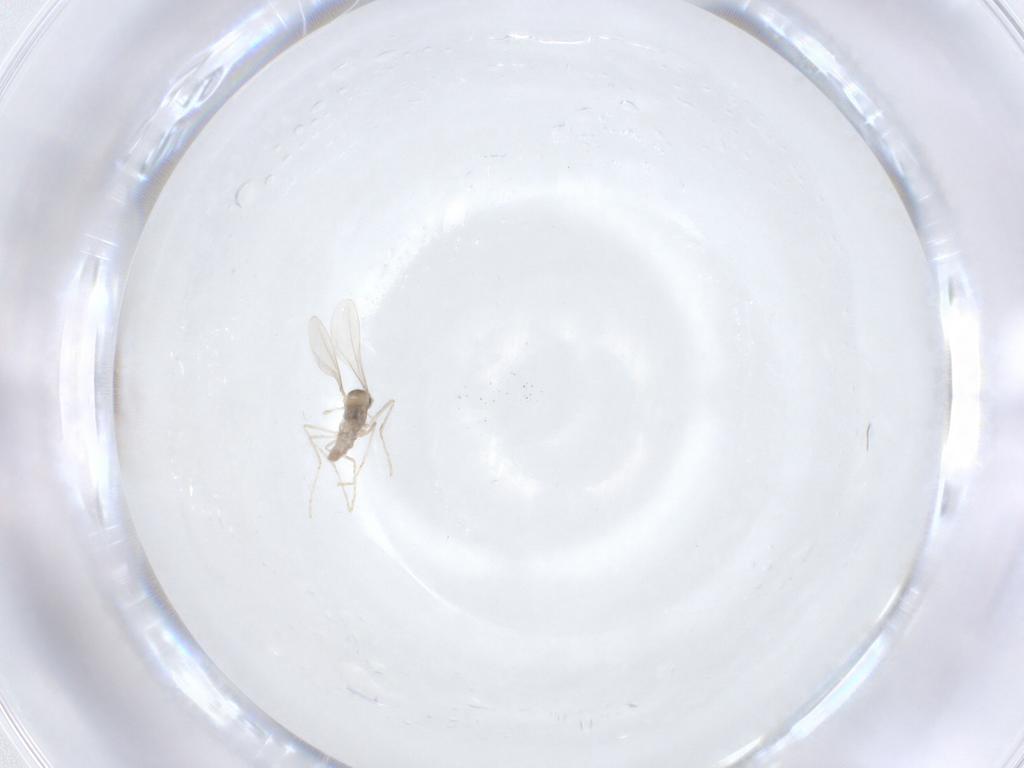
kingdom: Animalia
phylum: Arthropoda
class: Insecta
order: Diptera
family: Cecidomyiidae
